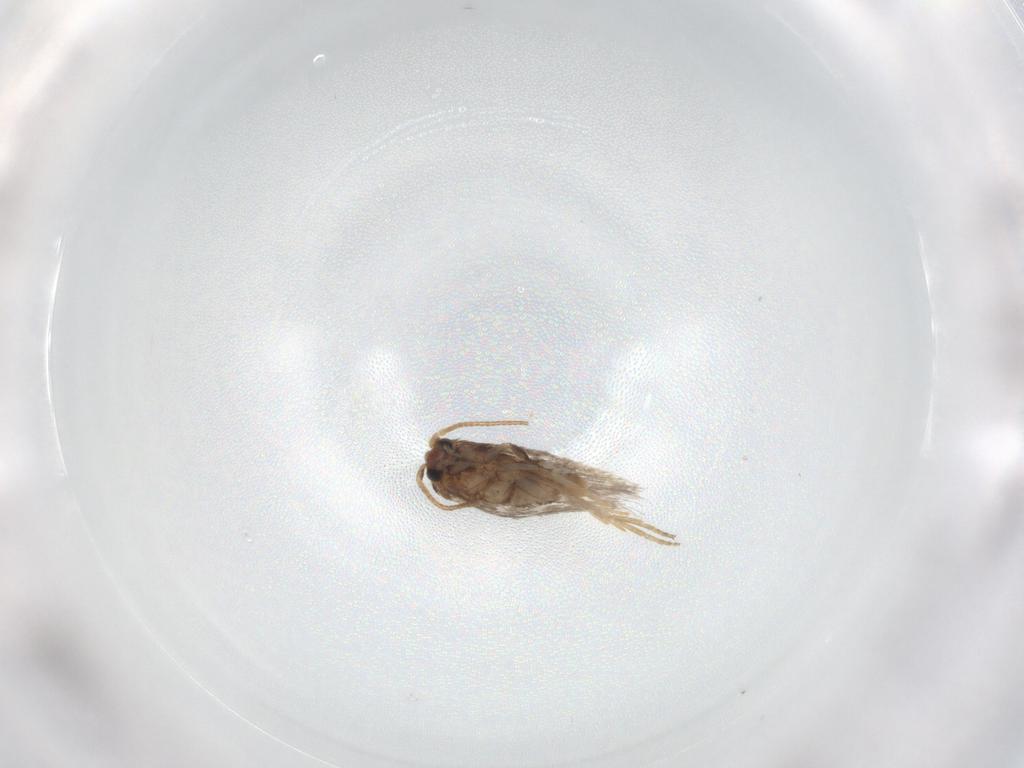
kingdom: Animalia
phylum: Arthropoda
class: Insecta
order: Lepidoptera
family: Nepticulidae
